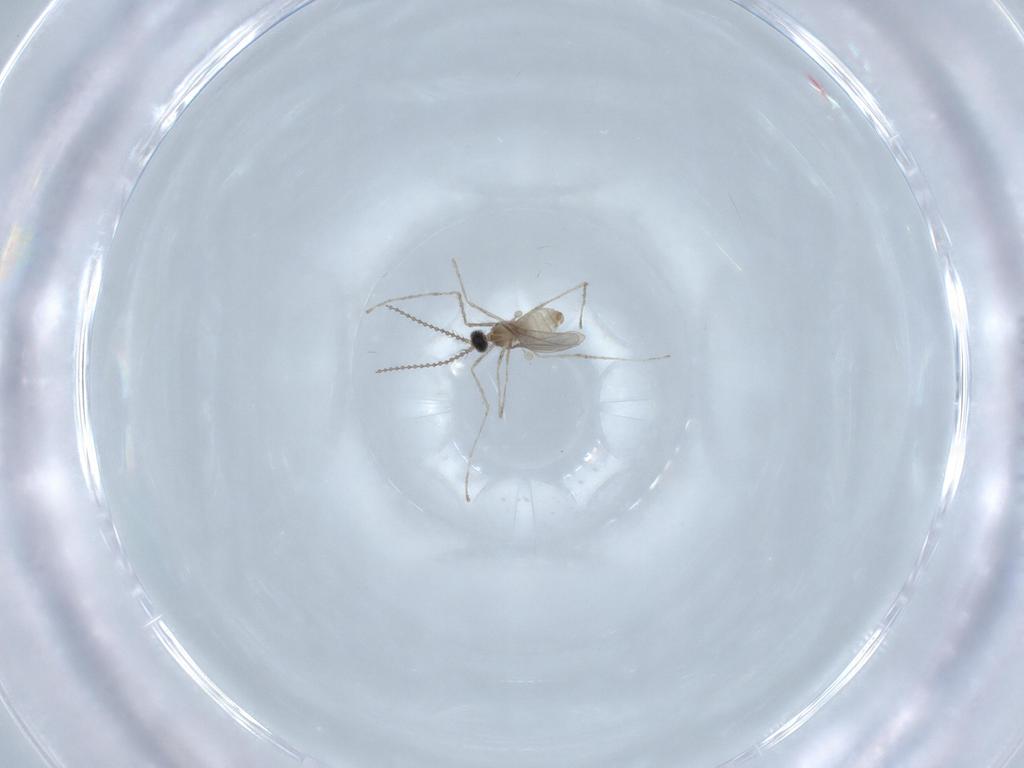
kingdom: Animalia
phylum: Arthropoda
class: Insecta
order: Diptera
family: Cecidomyiidae
